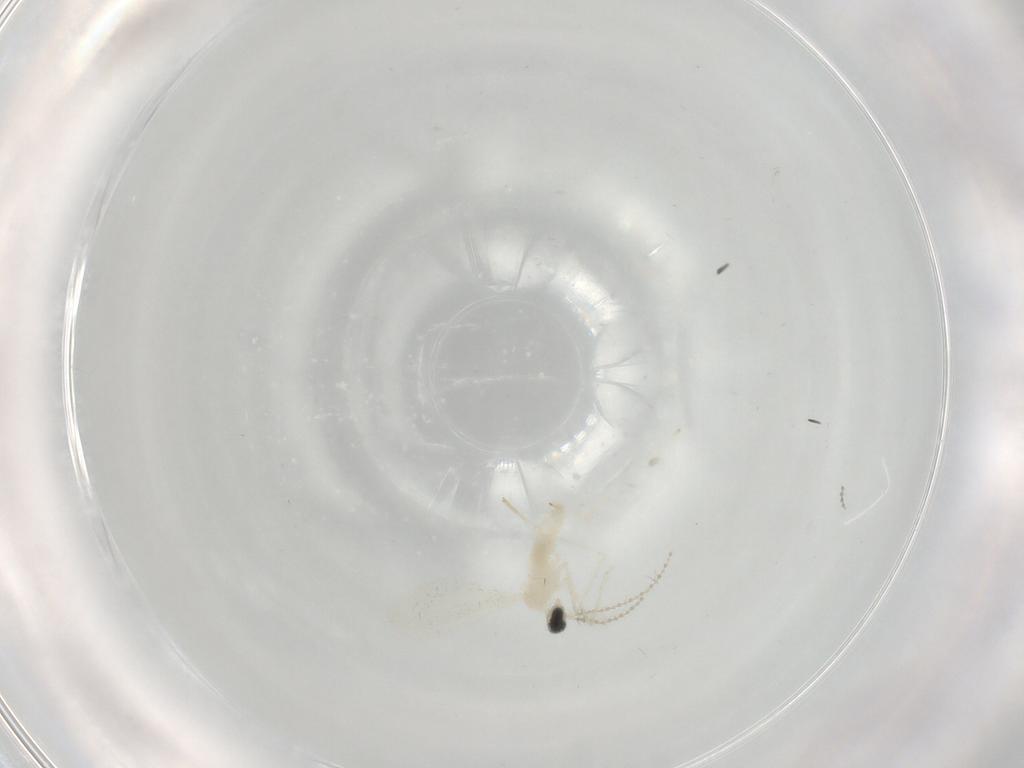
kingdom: Animalia
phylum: Arthropoda
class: Insecta
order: Diptera
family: Cecidomyiidae
